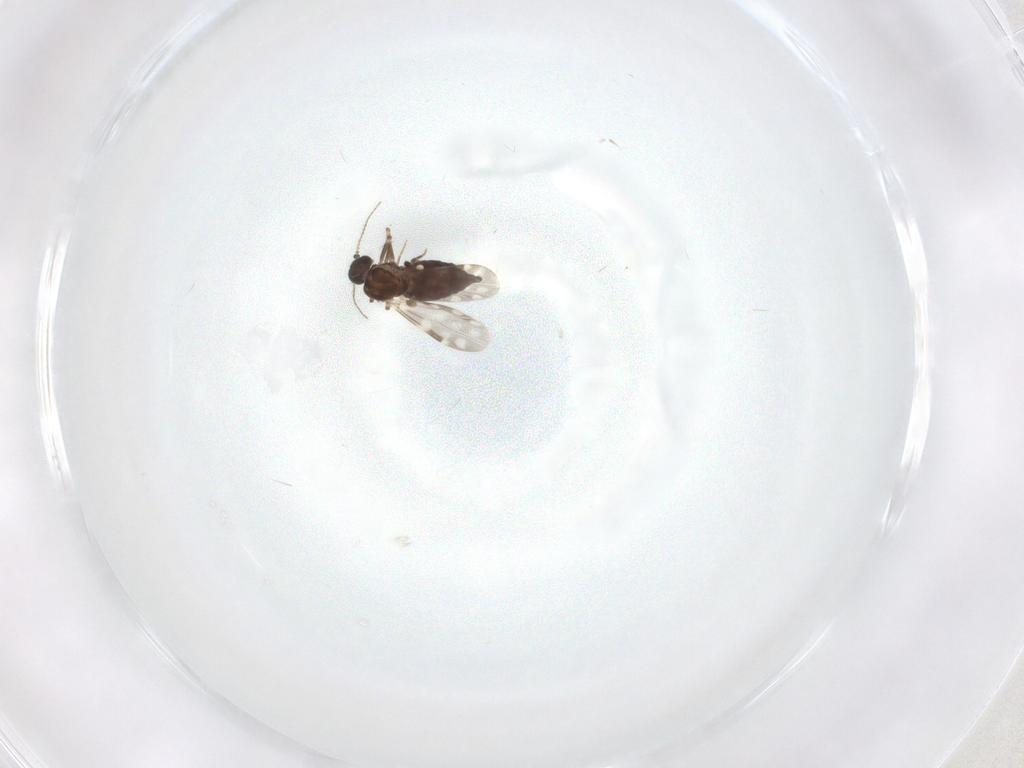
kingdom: Animalia
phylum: Arthropoda
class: Insecta
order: Diptera
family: Ceratopogonidae
